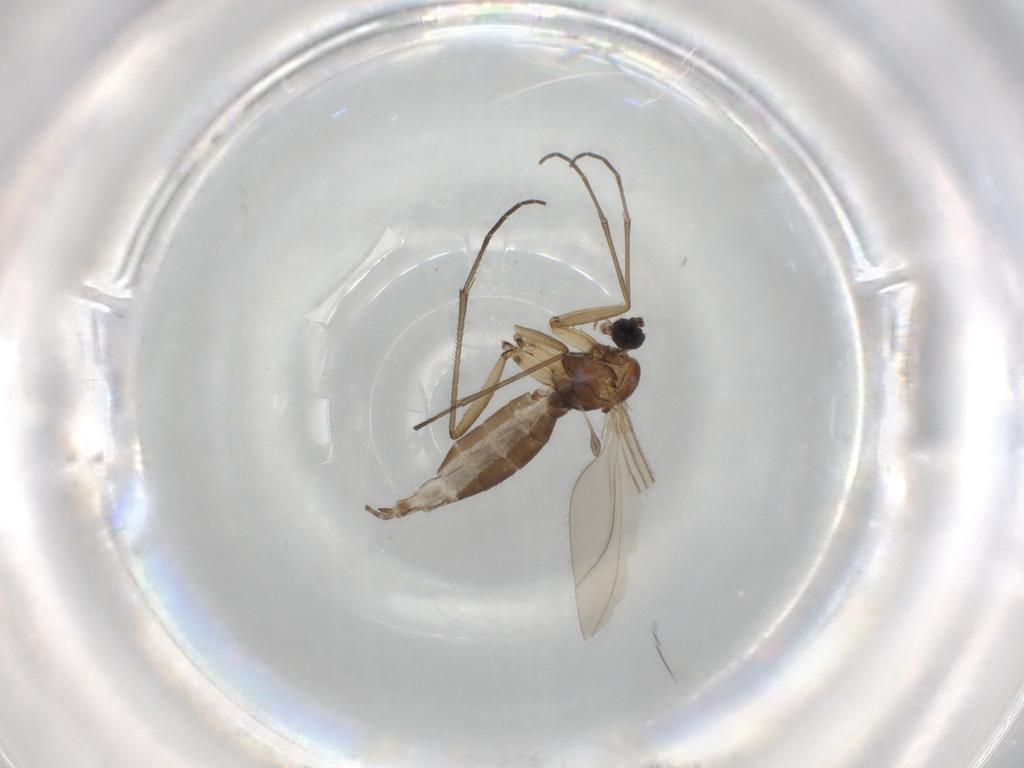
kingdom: Animalia
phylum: Arthropoda
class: Insecta
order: Diptera
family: Sciaridae
